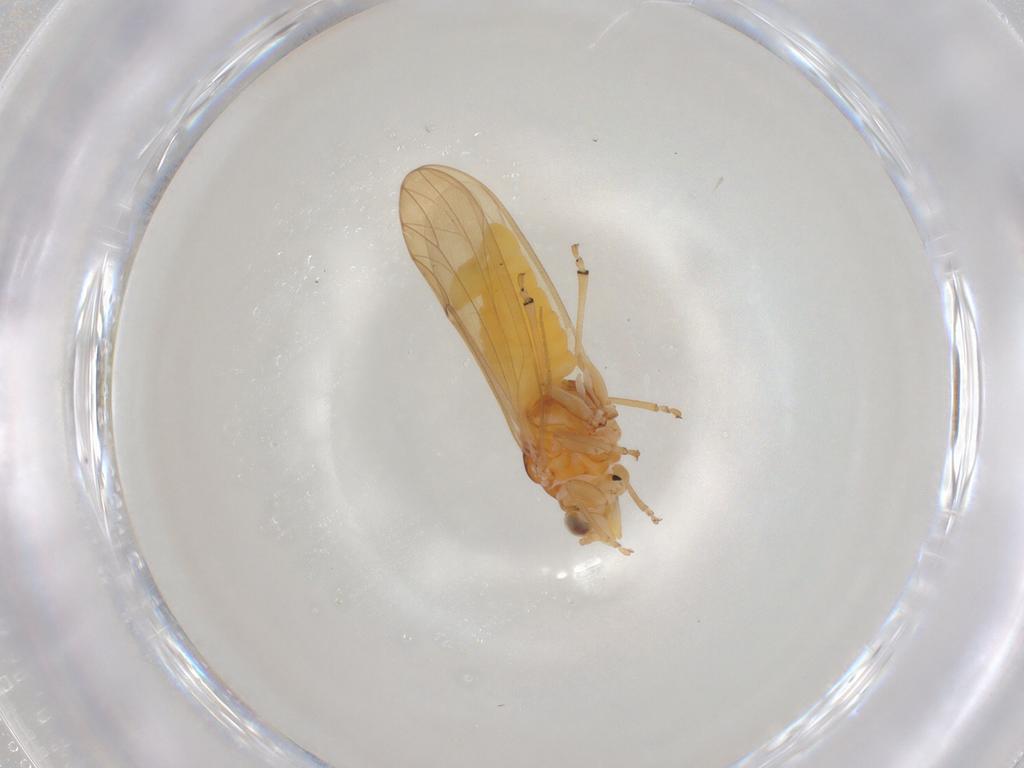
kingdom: Animalia
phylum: Arthropoda
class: Insecta
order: Diptera
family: Chironomidae
